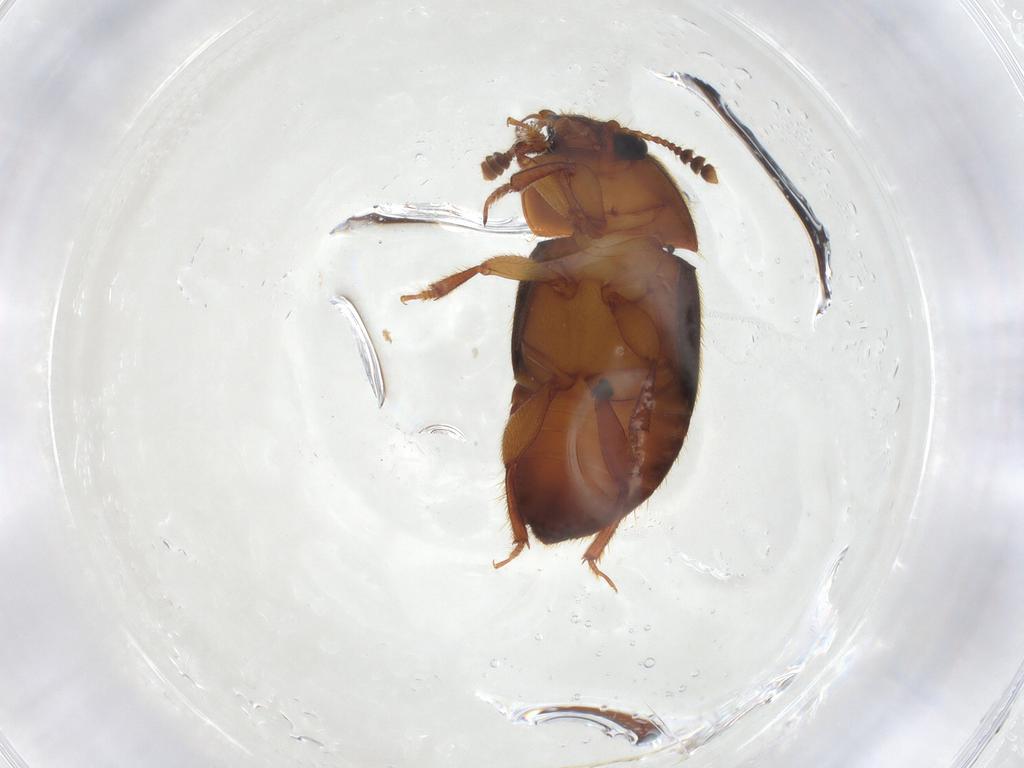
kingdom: Animalia
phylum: Arthropoda
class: Insecta
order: Coleoptera
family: Nitidulidae
